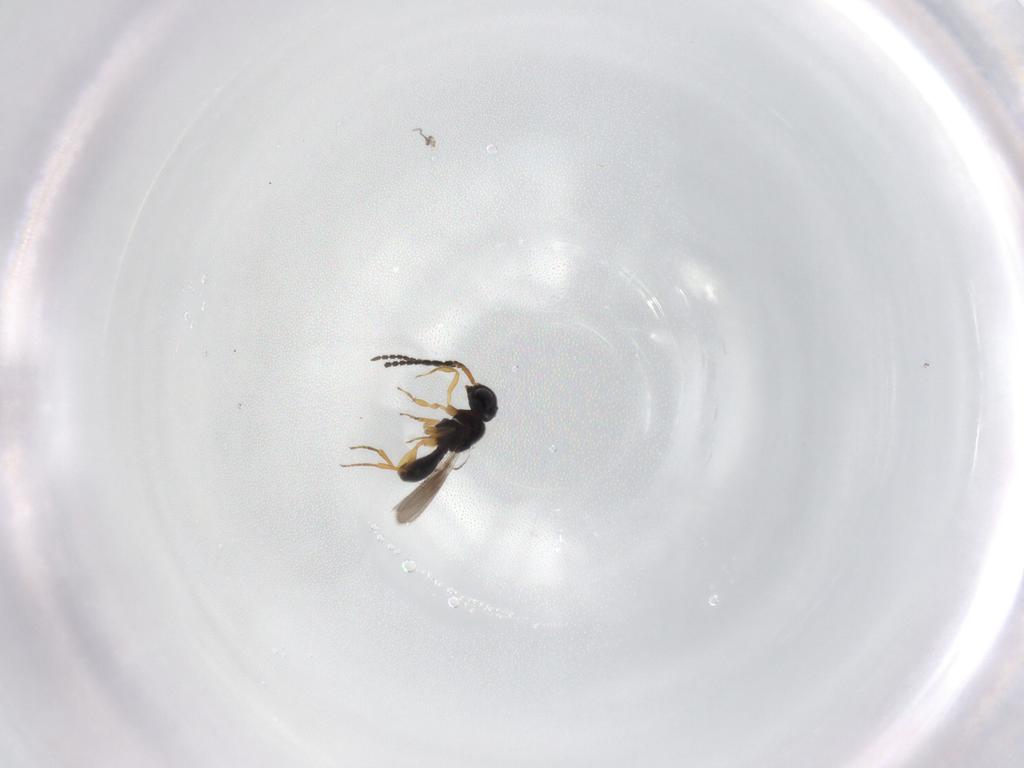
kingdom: Animalia
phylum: Arthropoda
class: Insecta
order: Hymenoptera
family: Scelionidae
